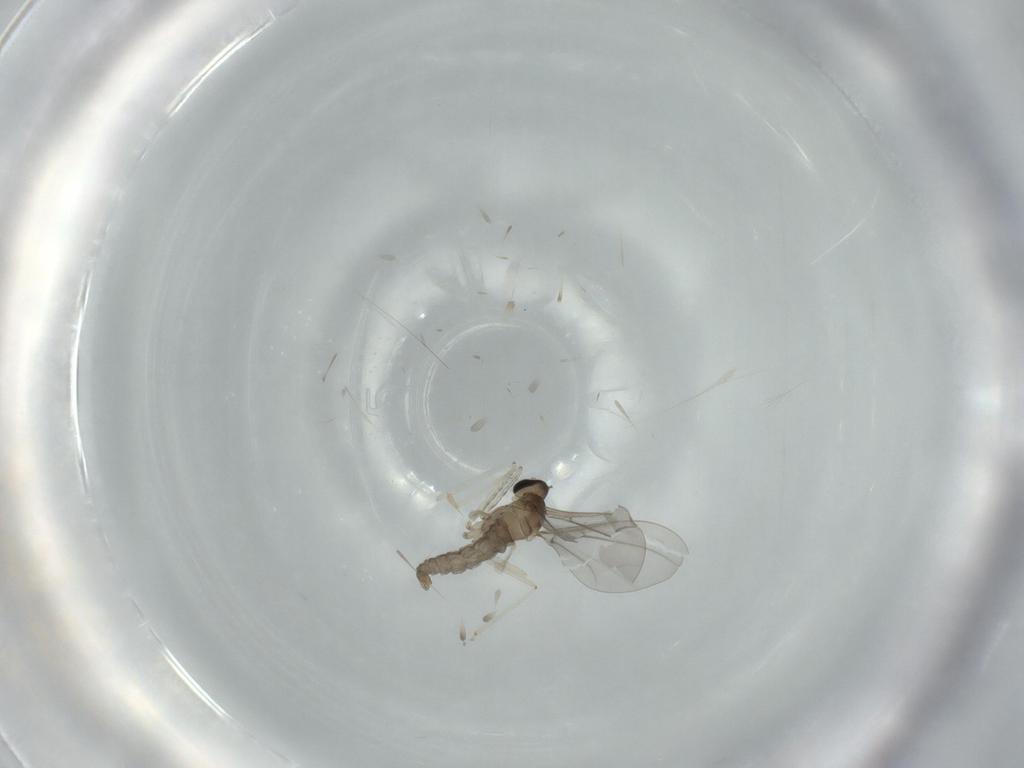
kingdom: Animalia
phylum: Arthropoda
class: Insecta
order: Diptera
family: Cecidomyiidae
